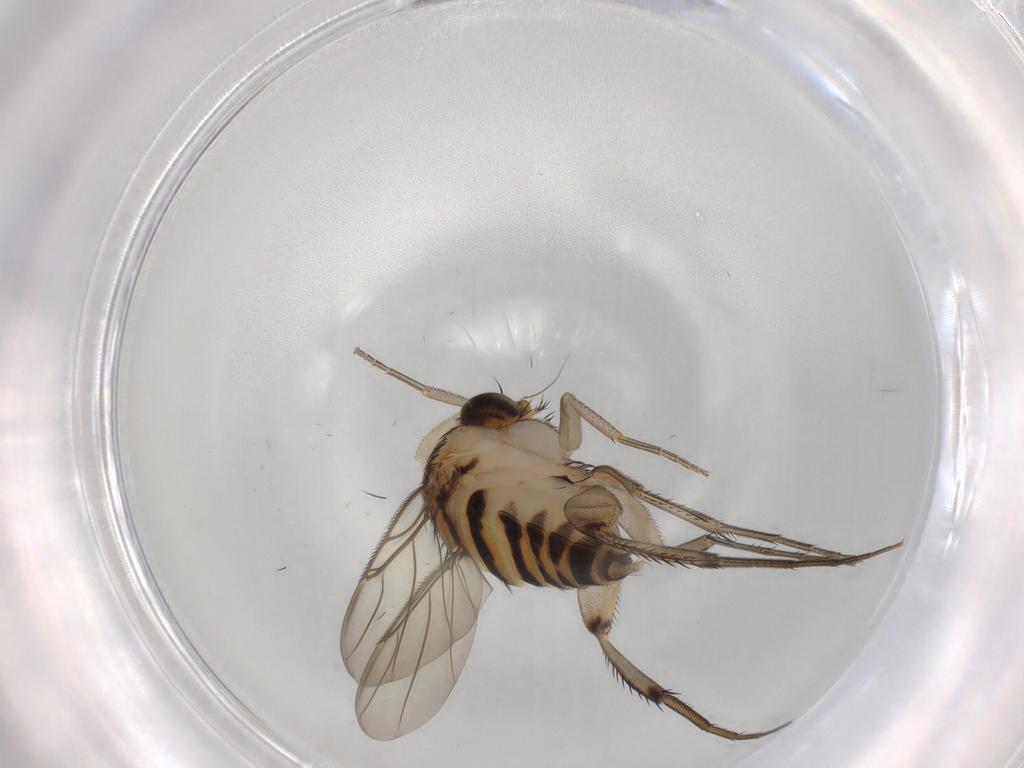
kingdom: Animalia
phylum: Arthropoda
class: Insecta
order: Diptera
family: Phoridae
